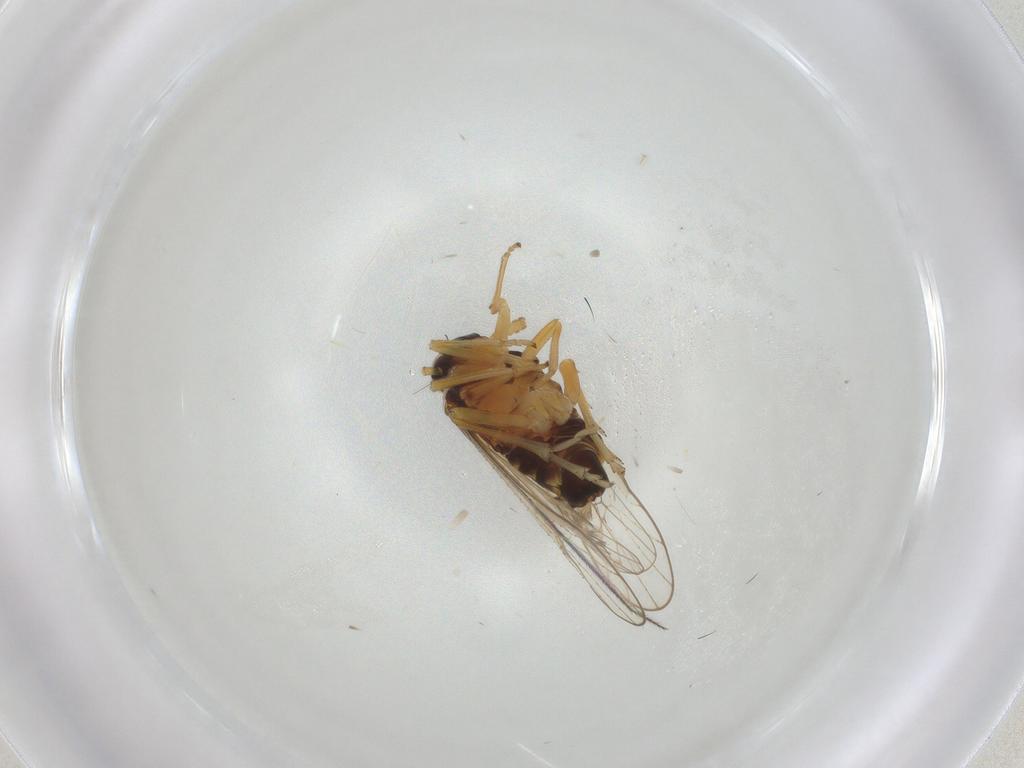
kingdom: Animalia
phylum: Arthropoda
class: Insecta
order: Hemiptera
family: Delphacidae
